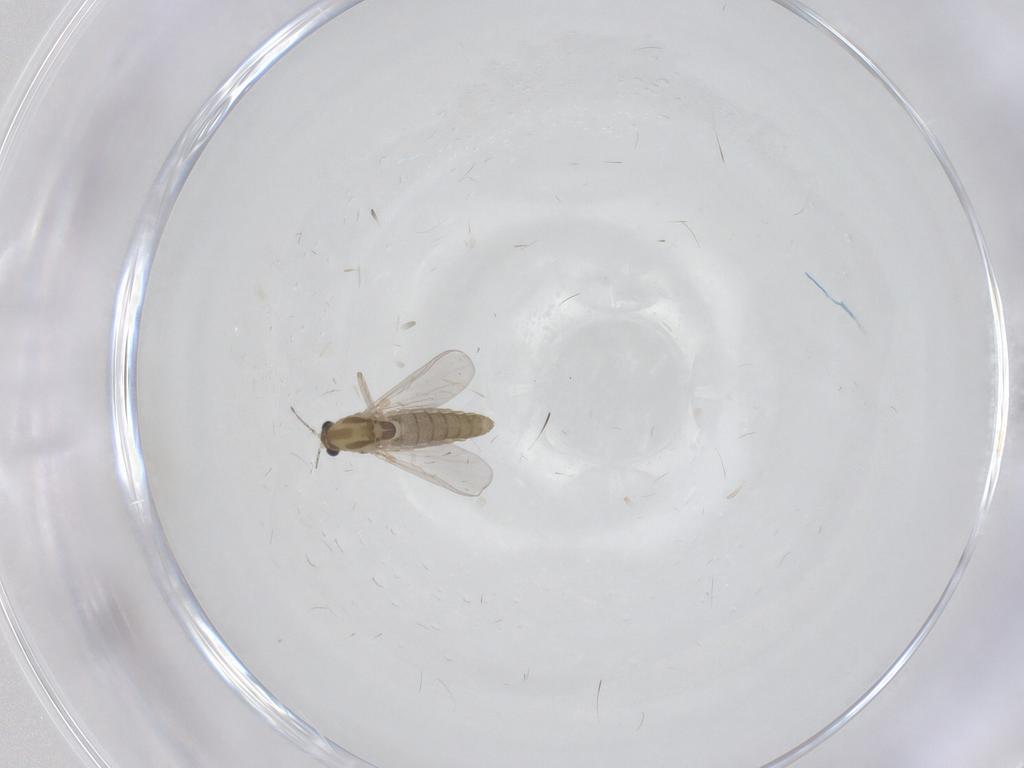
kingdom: Animalia
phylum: Arthropoda
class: Insecta
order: Diptera
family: Chironomidae
